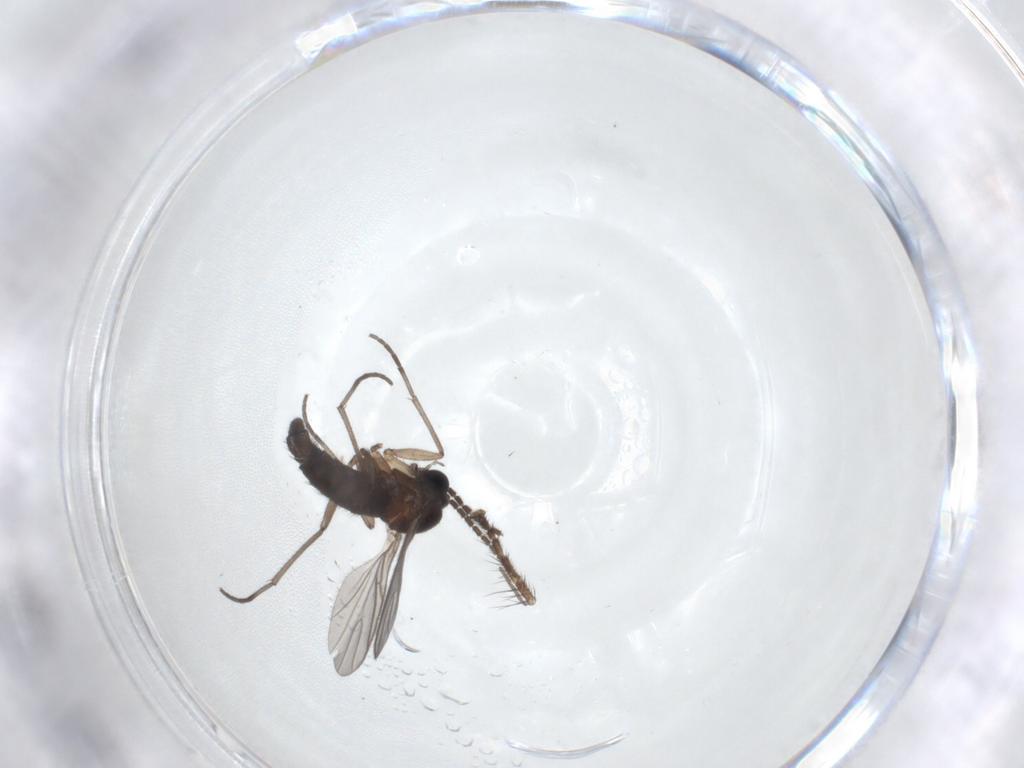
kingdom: Animalia
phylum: Arthropoda
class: Insecta
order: Diptera
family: Sciaridae
